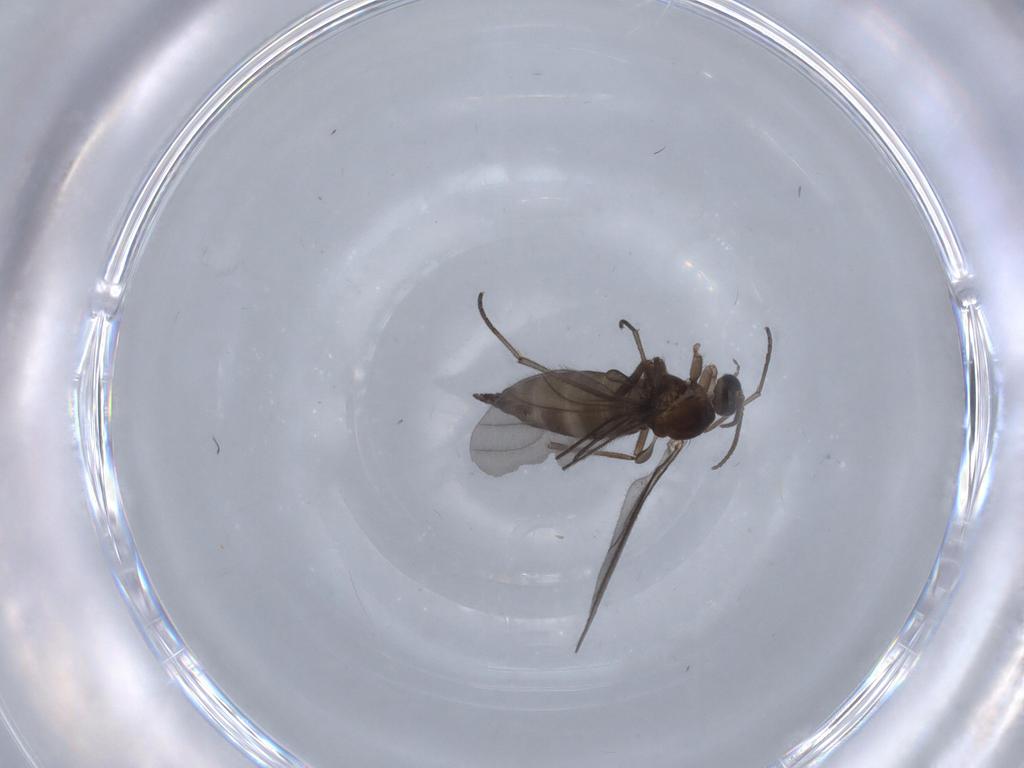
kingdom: Animalia
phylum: Arthropoda
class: Insecta
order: Diptera
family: Sciaridae
